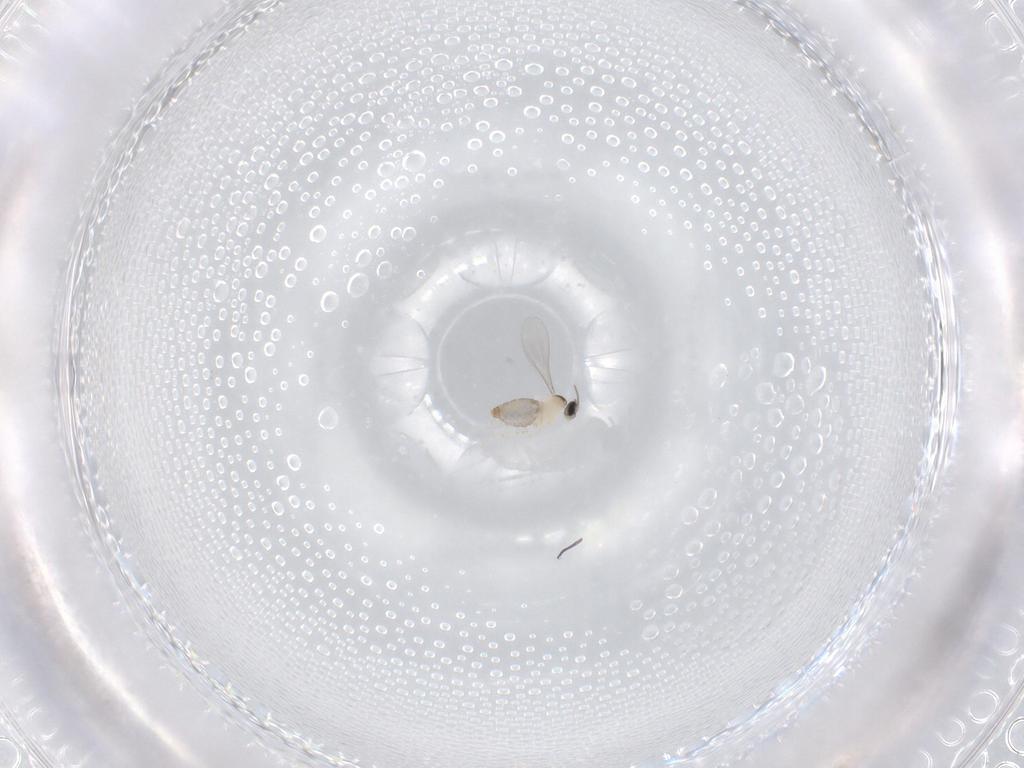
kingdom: Animalia
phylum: Arthropoda
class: Insecta
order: Diptera
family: Cecidomyiidae
